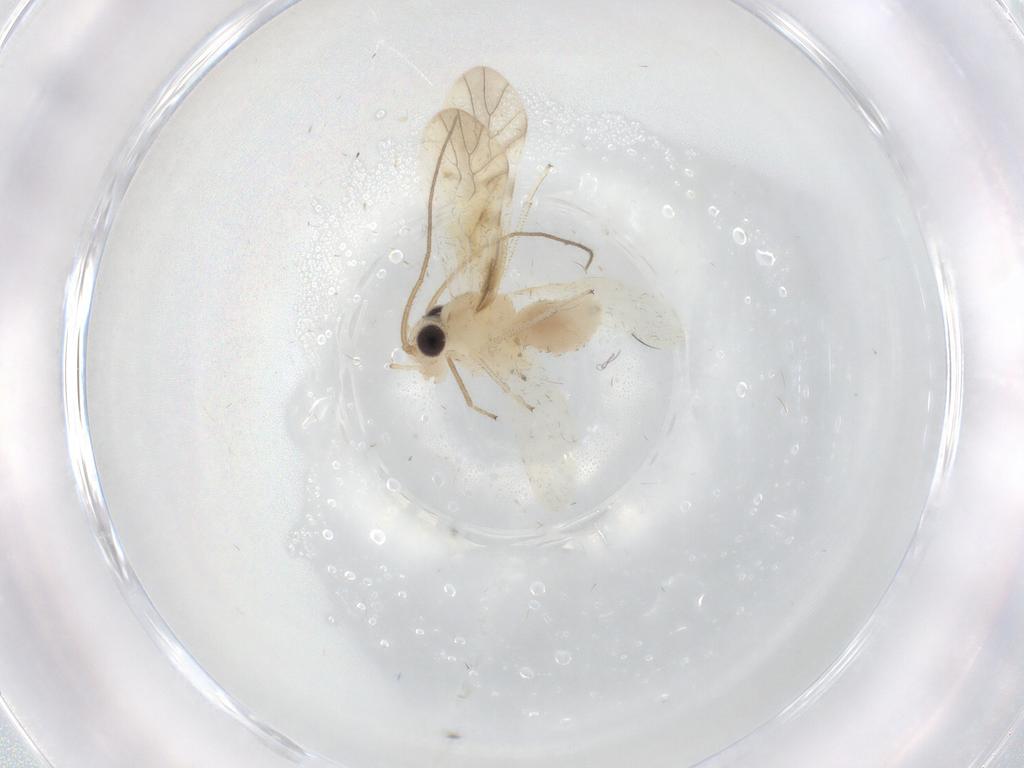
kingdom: Animalia
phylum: Arthropoda
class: Insecta
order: Psocodea
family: Caeciliusidae
